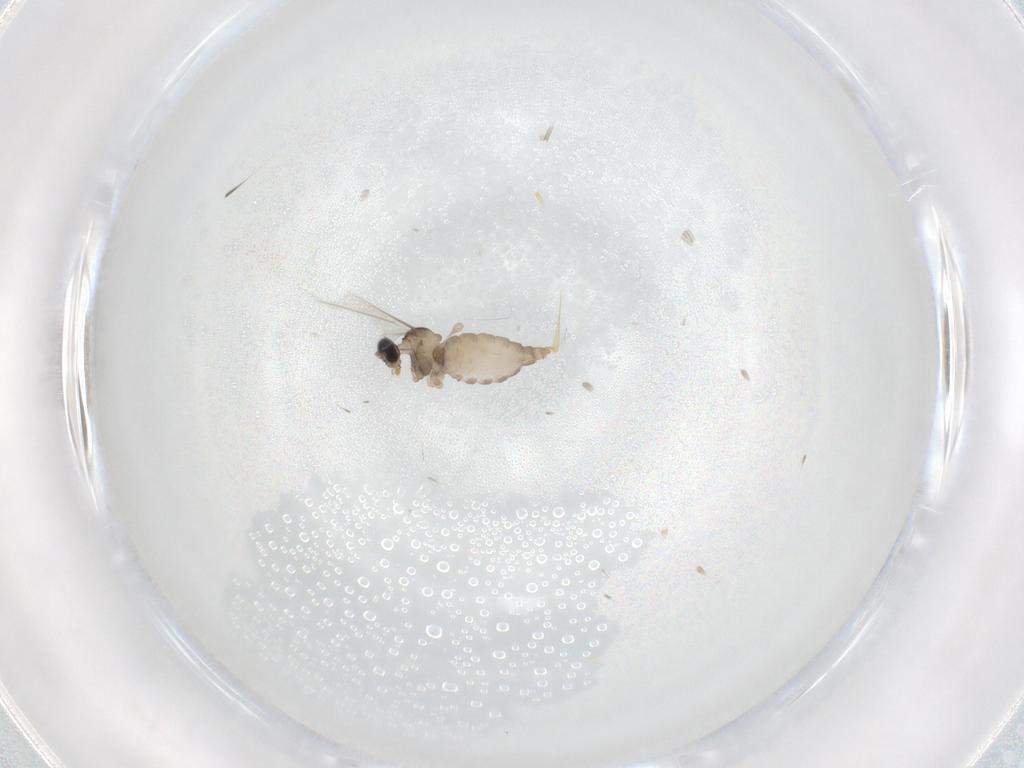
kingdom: Animalia
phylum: Arthropoda
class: Insecta
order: Diptera
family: Cecidomyiidae
